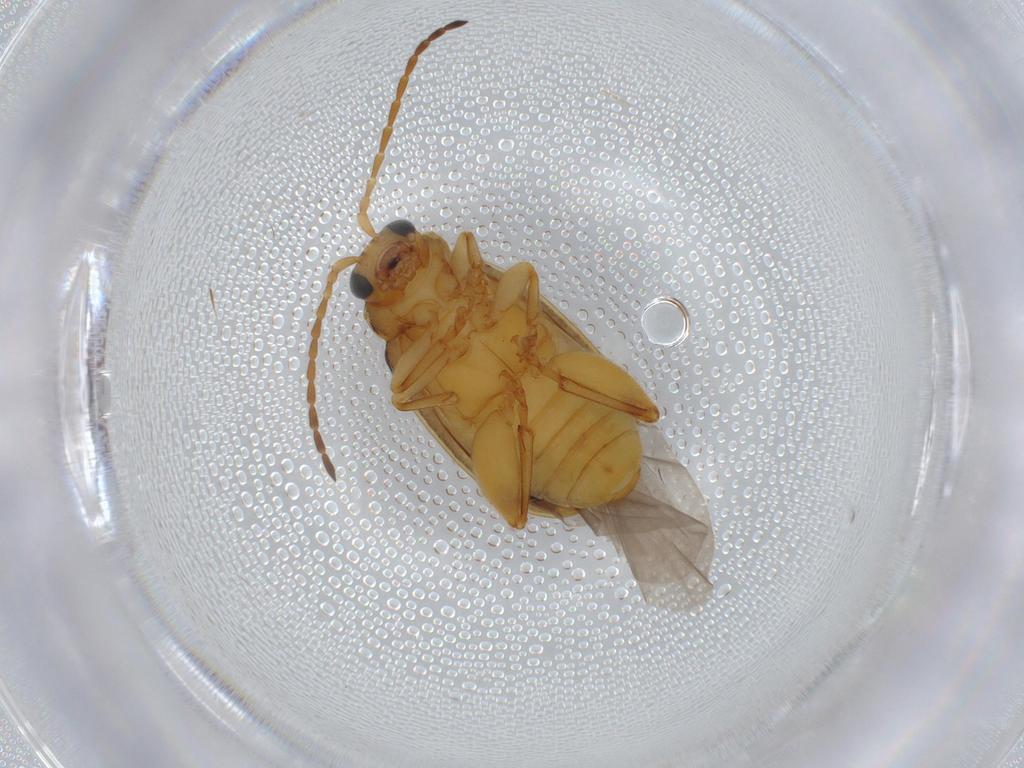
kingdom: Animalia
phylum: Arthropoda
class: Insecta
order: Coleoptera
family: Chrysomelidae
